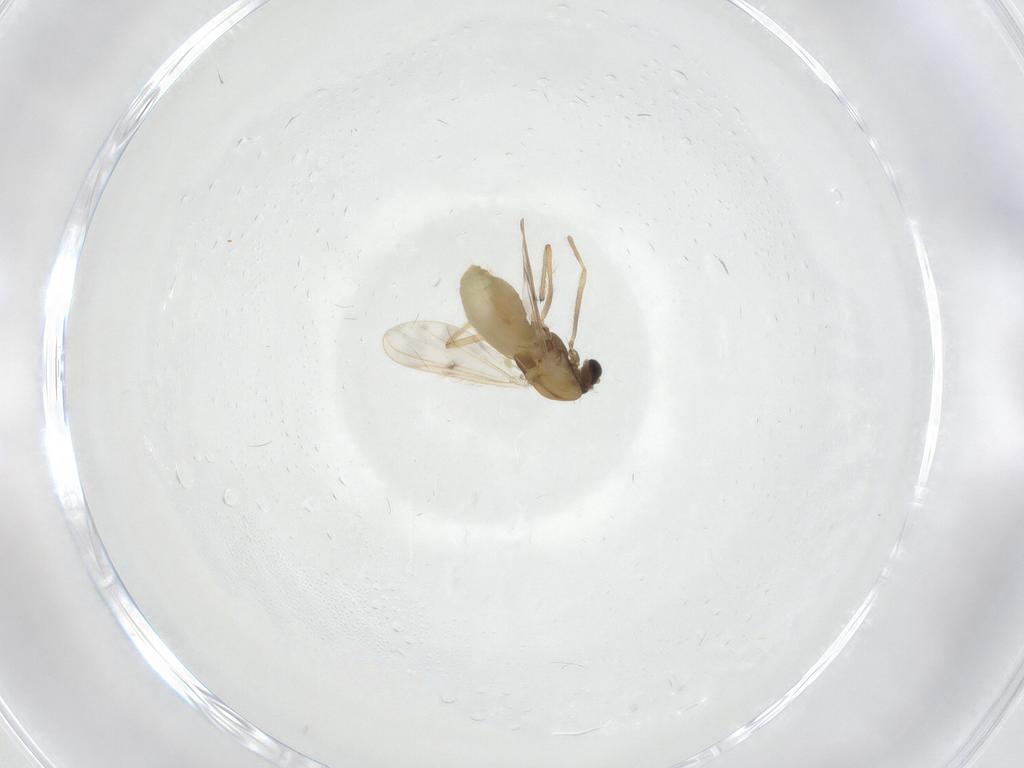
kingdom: Animalia
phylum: Arthropoda
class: Insecta
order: Diptera
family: Chironomidae
